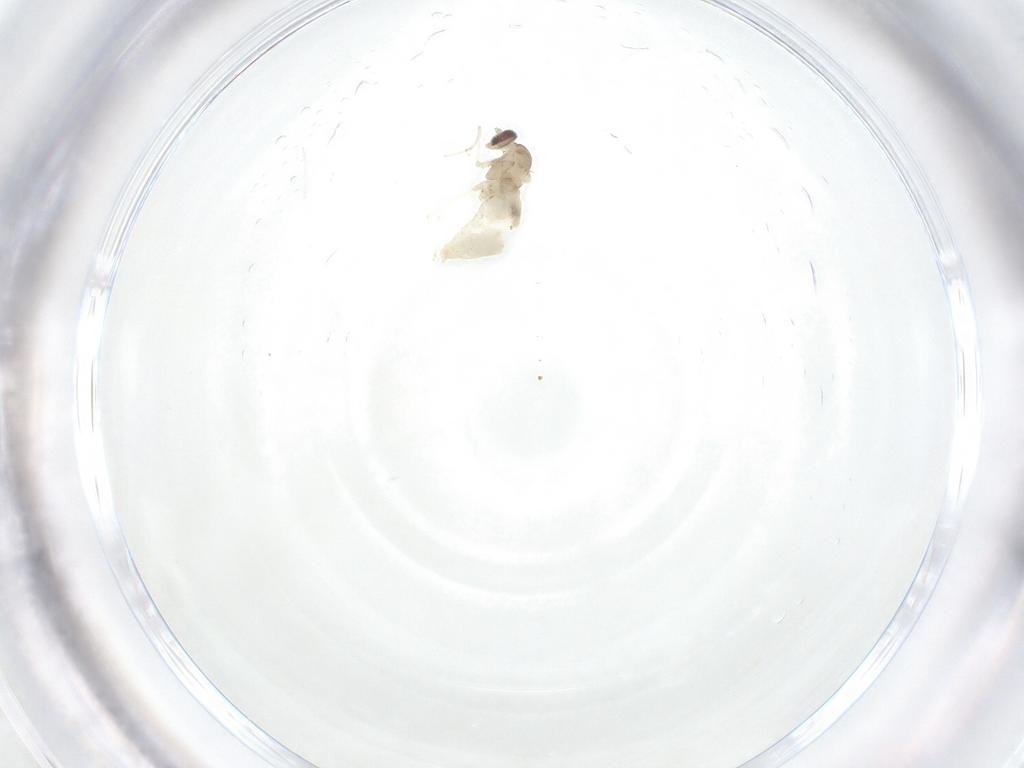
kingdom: Animalia
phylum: Arthropoda
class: Insecta
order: Diptera
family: Cecidomyiidae
